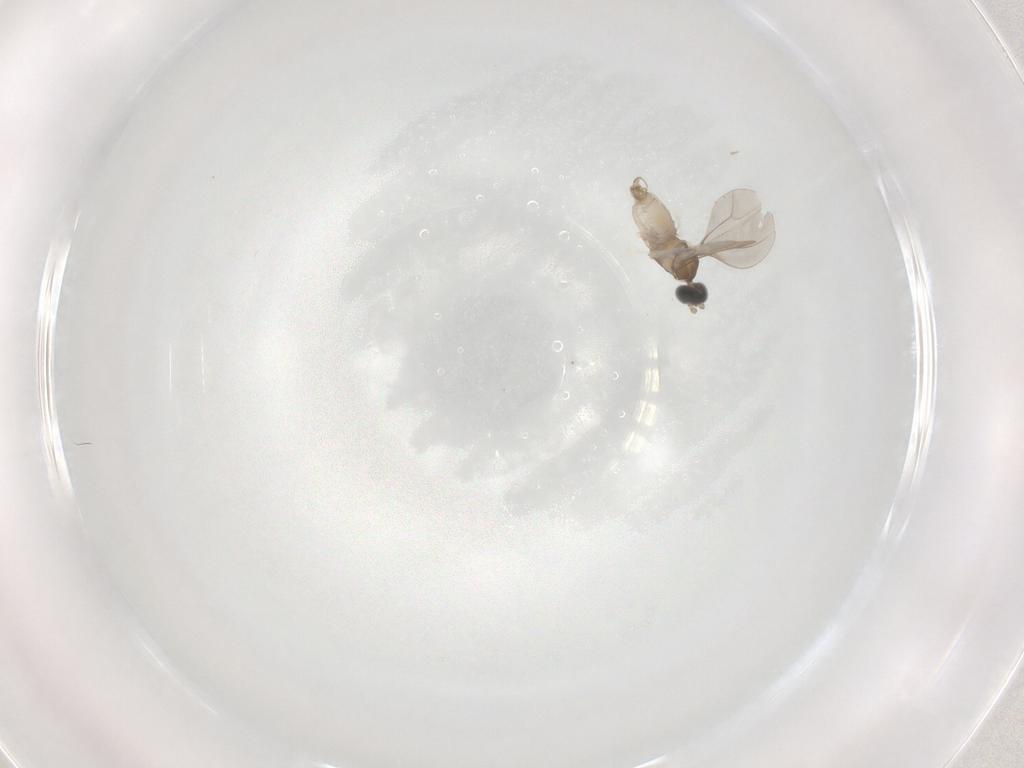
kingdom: Animalia
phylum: Arthropoda
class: Insecta
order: Diptera
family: Cecidomyiidae
